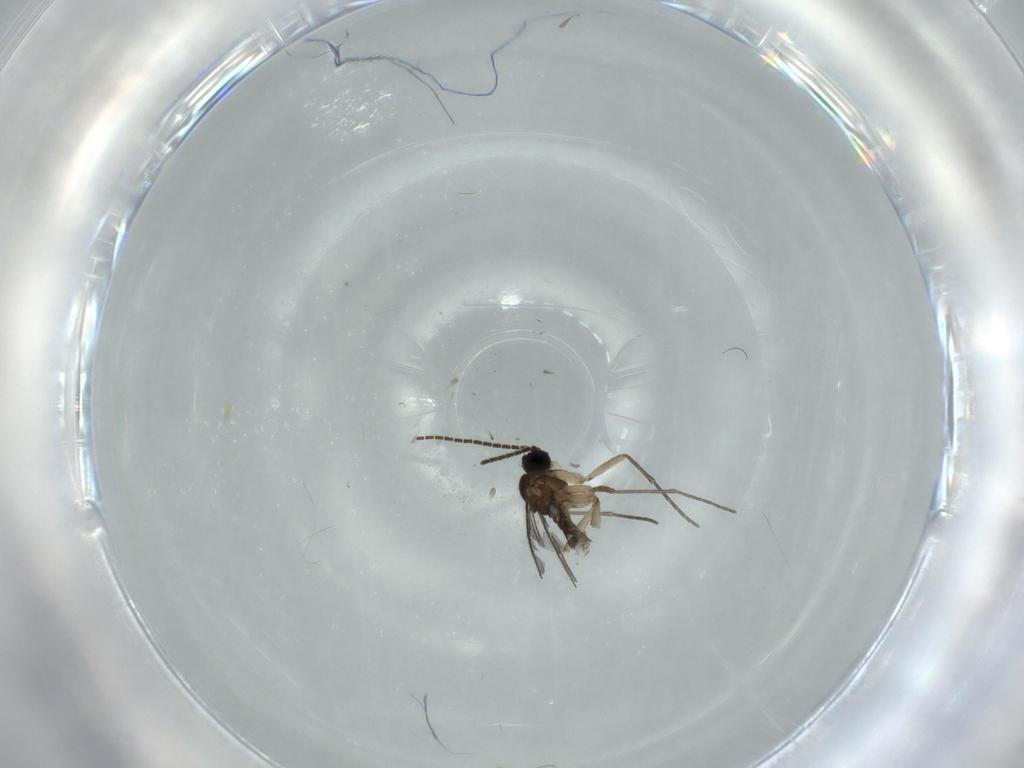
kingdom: Animalia
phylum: Arthropoda
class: Insecta
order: Diptera
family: Sciaridae
